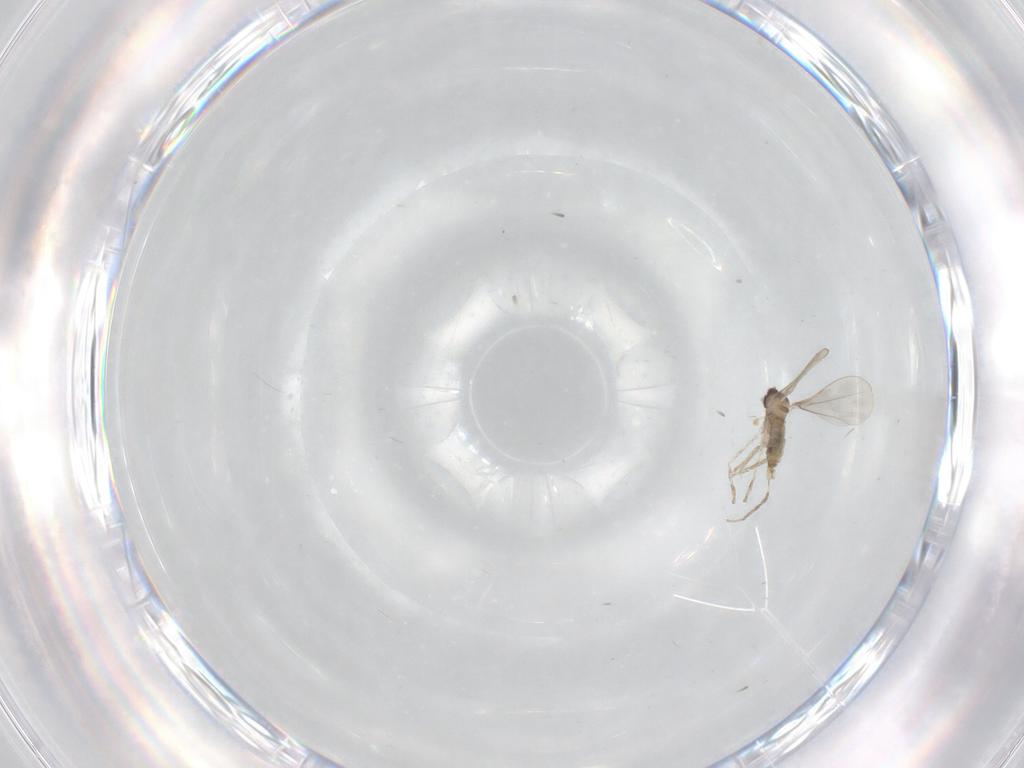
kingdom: Animalia
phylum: Arthropoda
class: Insecta
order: Diptera
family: Cecidomyiidae
